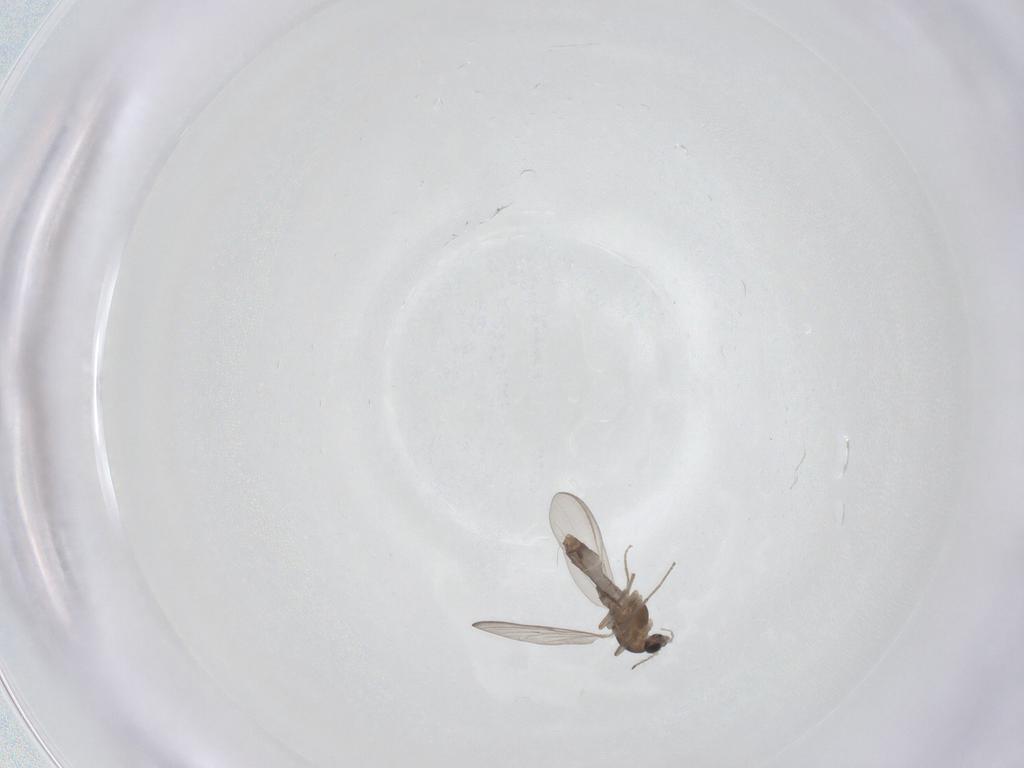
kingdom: Animalia
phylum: Arthropoda
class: Insecta
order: Diptera
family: Chironomidae
